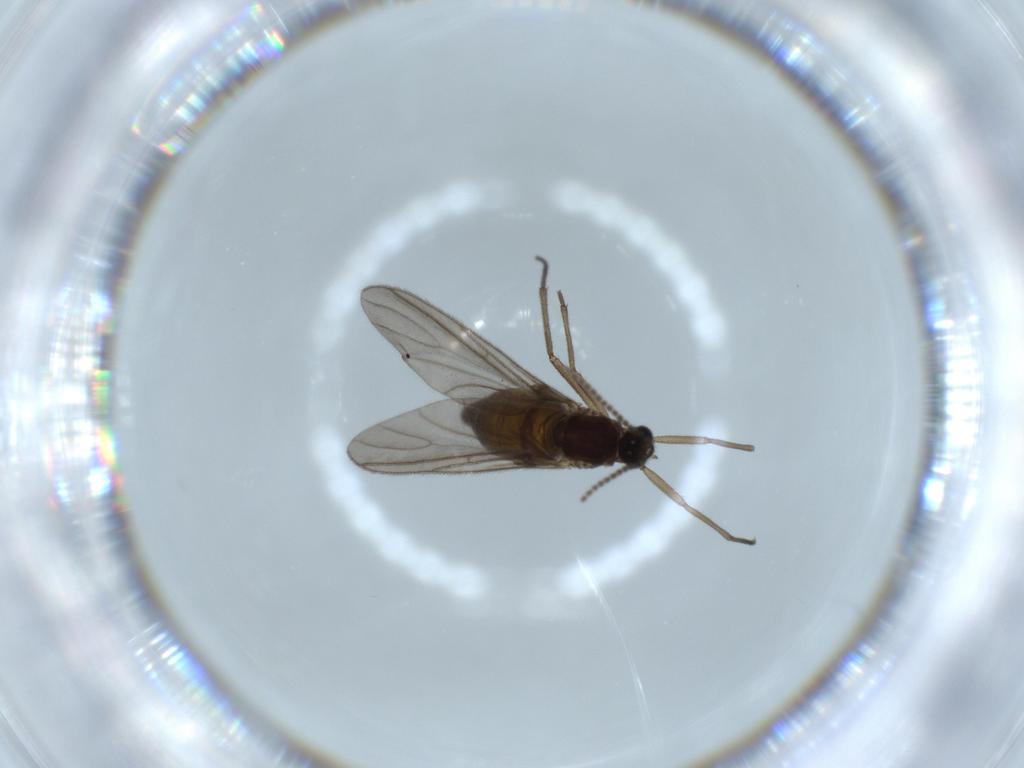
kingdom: Animalia
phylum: Arthropoda
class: Insecta
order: Diptera
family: Sciaridae
